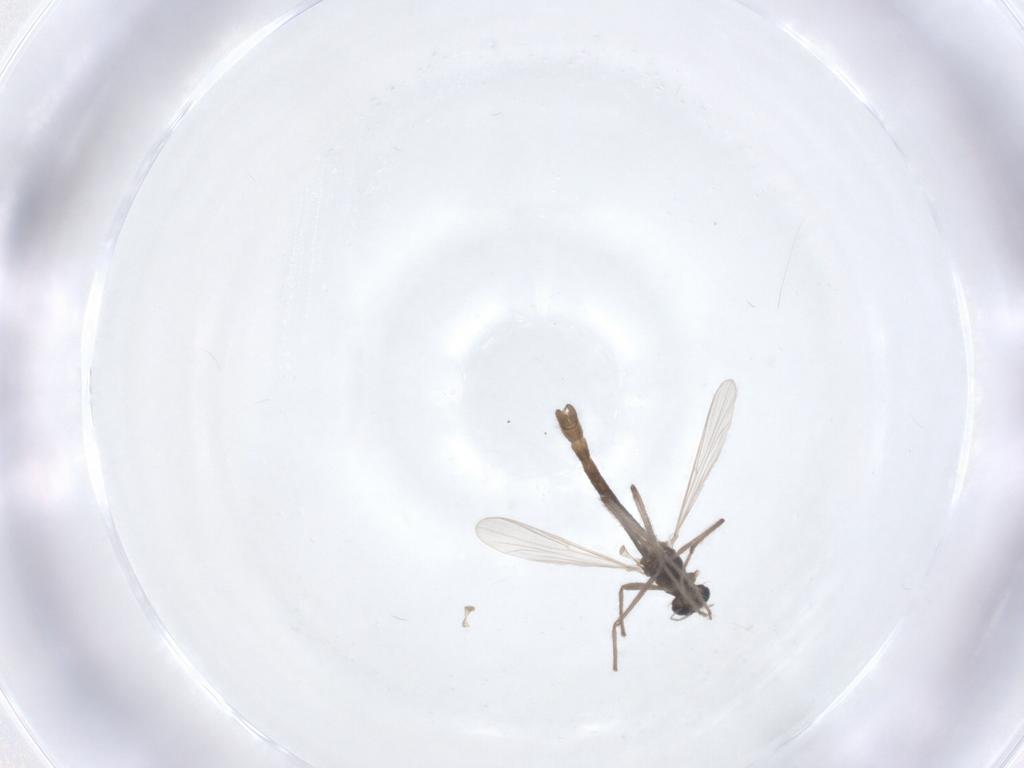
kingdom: Animalia
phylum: Arthropoda
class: Insecta
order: Diptera
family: Chironomidae
